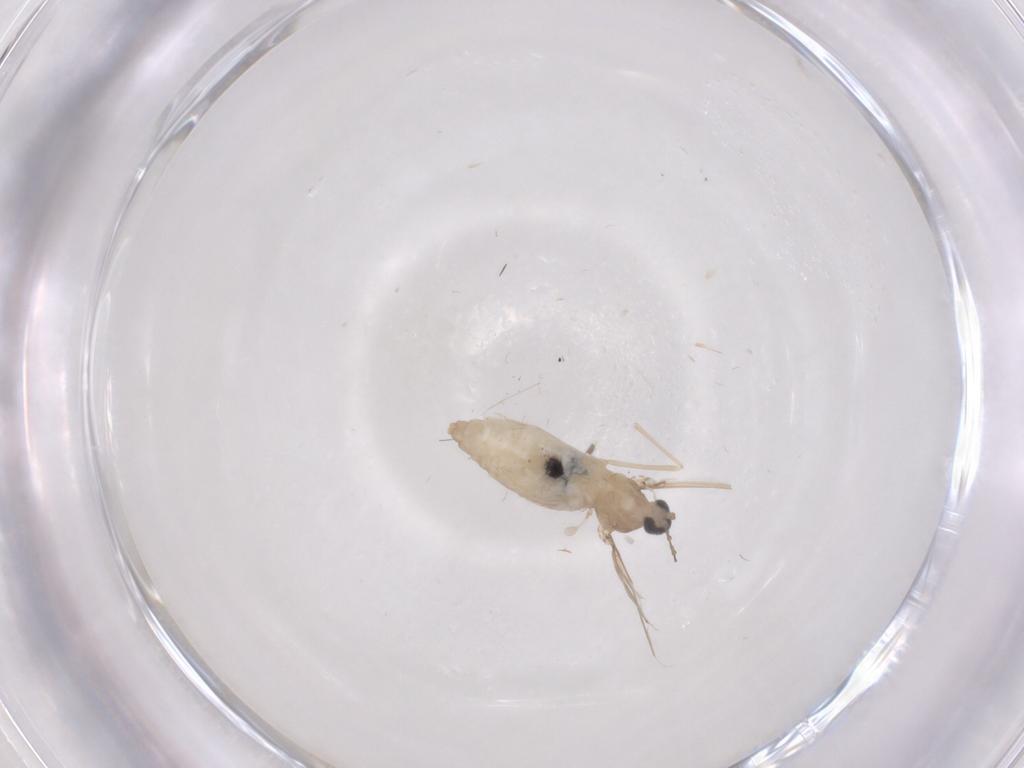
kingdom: Animalia
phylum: Arthropoda
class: Insecta
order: Diptera
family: Cecidomyiidae
